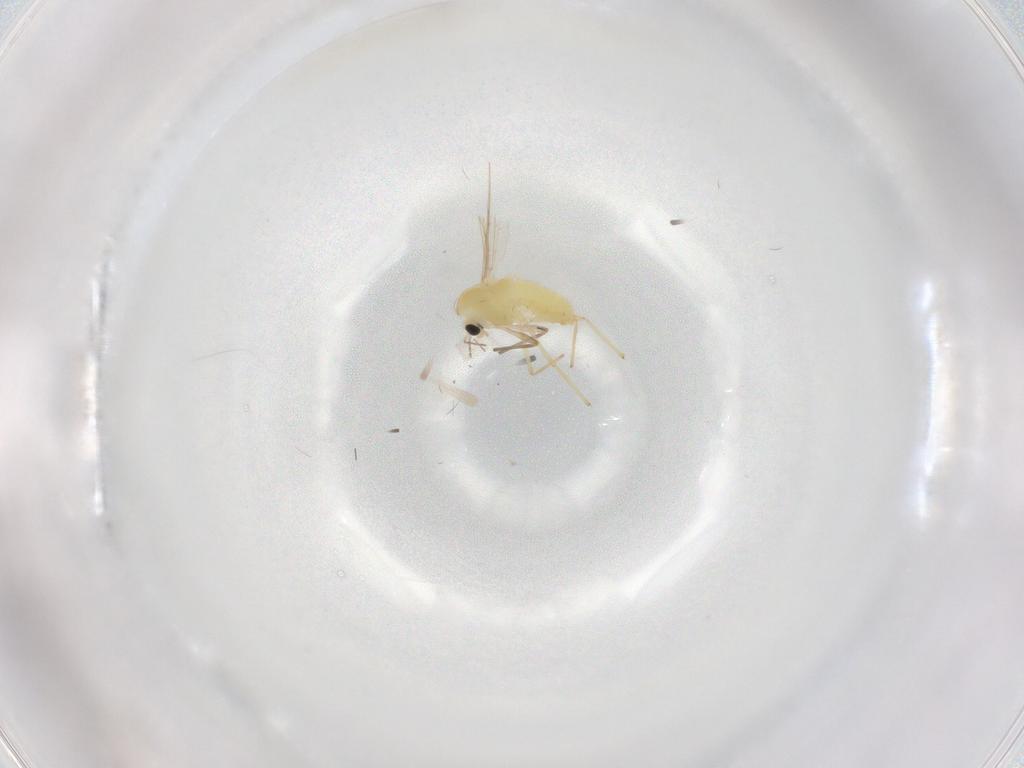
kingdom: Animalia
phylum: Arthropoda
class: Insecta
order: Diptera
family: Chironomidae
